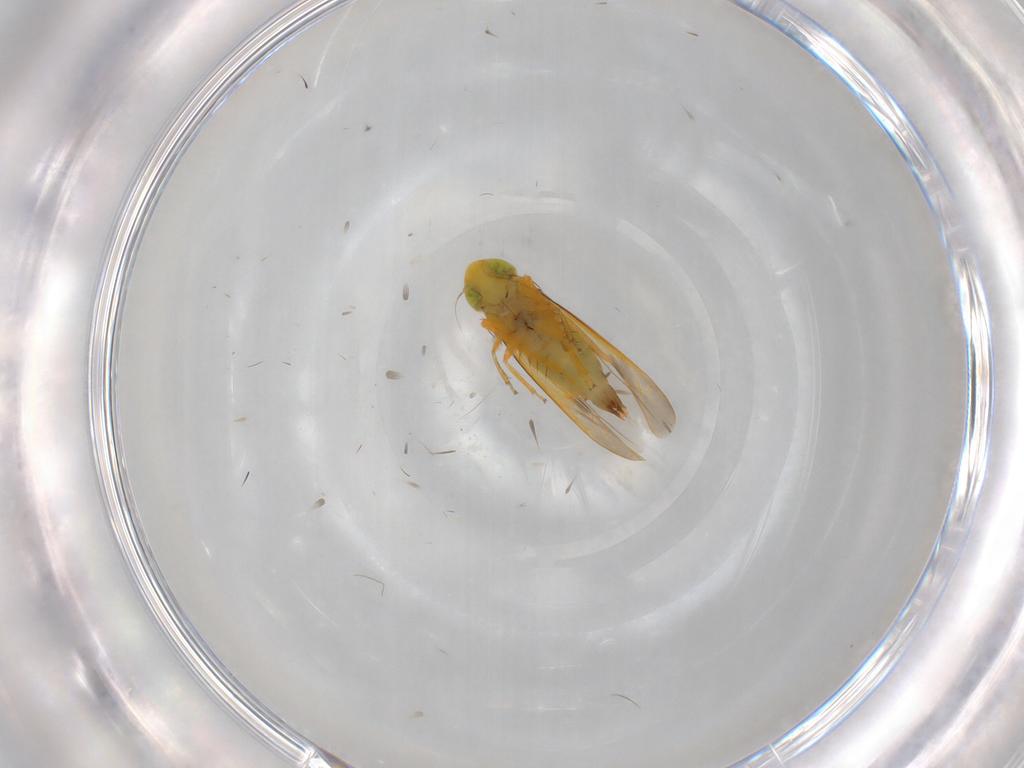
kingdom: Animalia
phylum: Arthropoda
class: Insecta
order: Hemiptera
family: Cicadellidae
